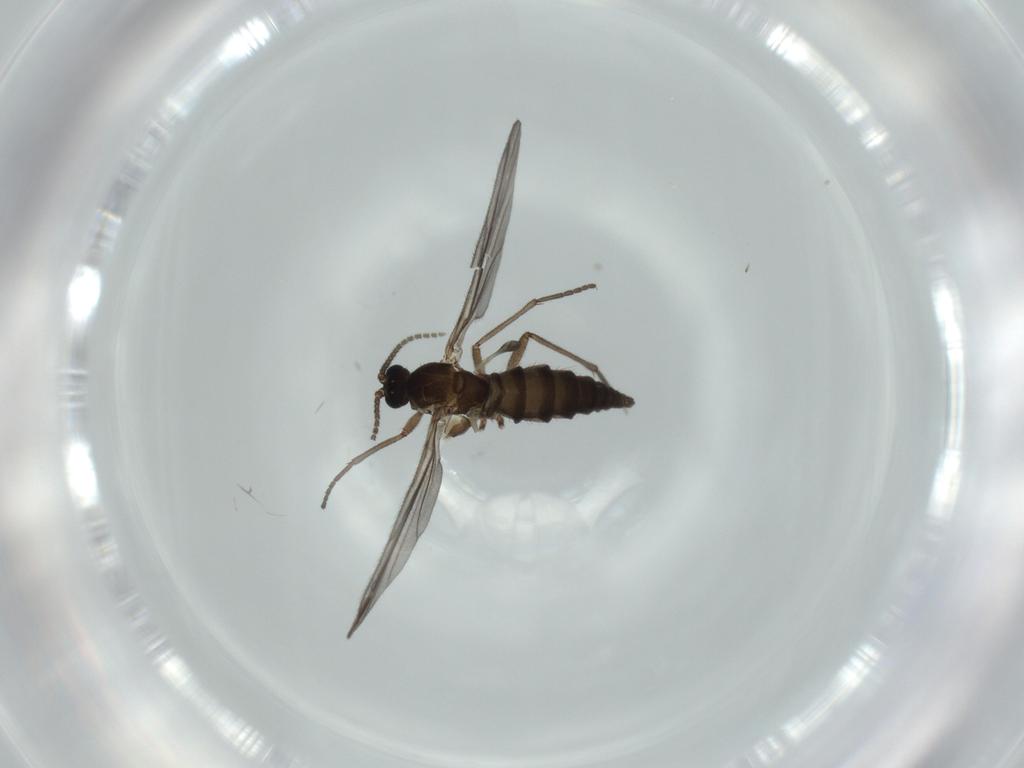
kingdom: Animalia
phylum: Arthropoda
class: Insecta
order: Diptera
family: Sciaridae
